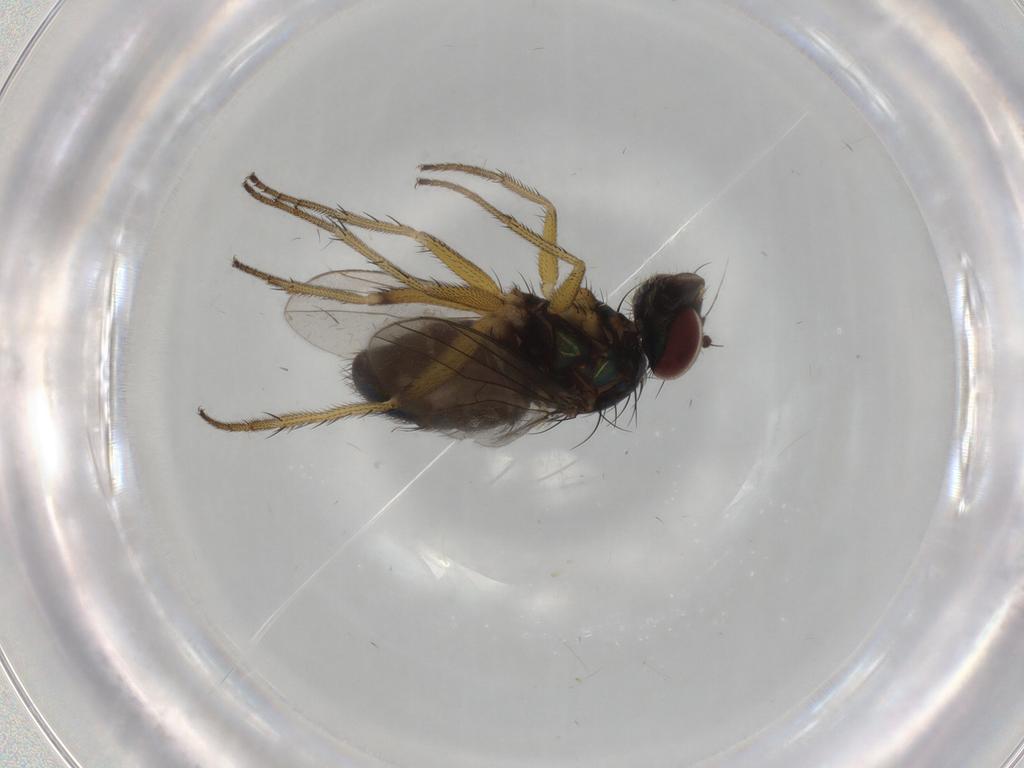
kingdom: Animalia
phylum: Arthropoda
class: Insecta
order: Diptera
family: Dolichopodidae
